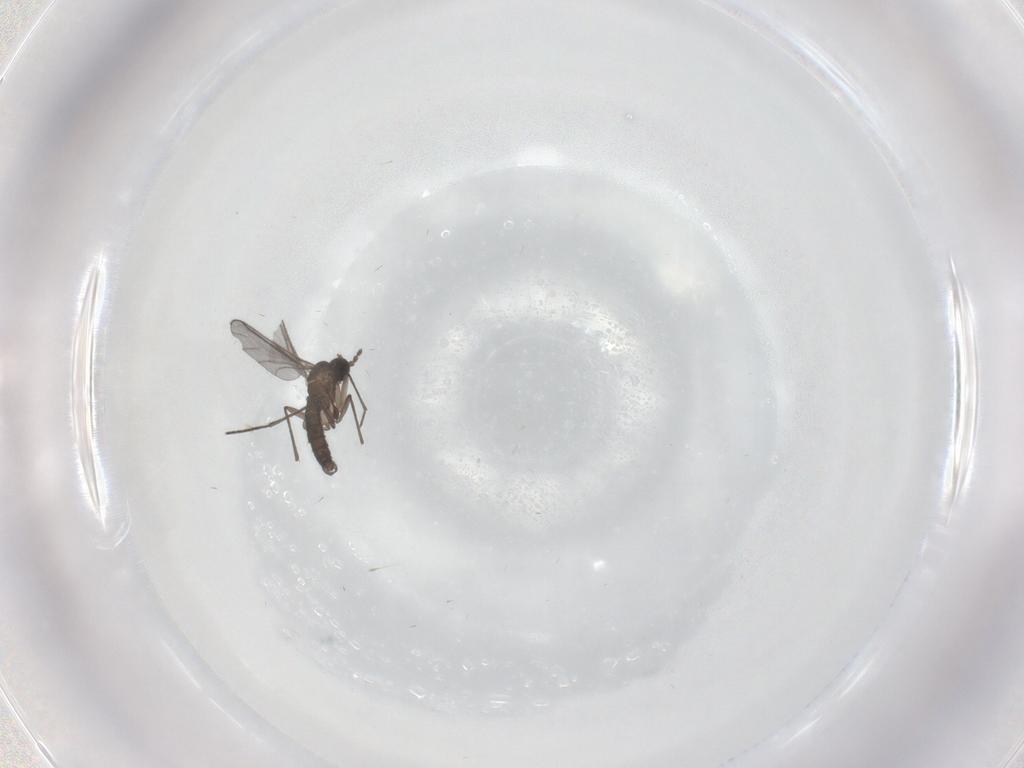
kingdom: Animalia
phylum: Arthropoda
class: Insecta
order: Diptera
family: Sciaridae
